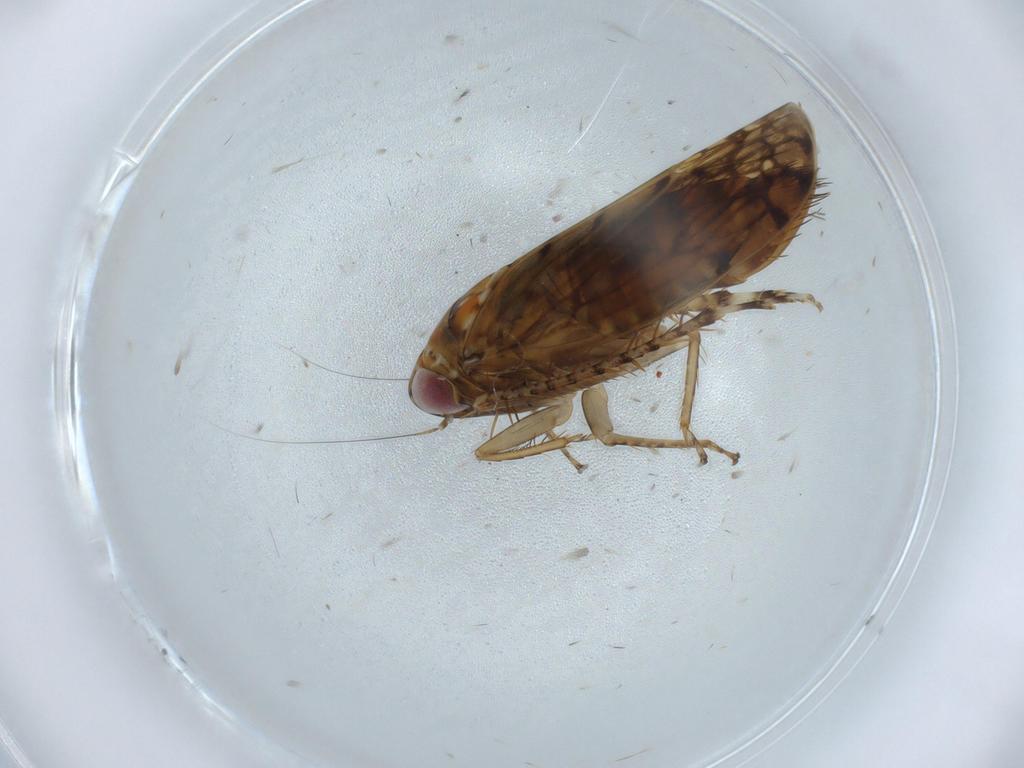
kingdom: Animalia
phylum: Arthropoda
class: Insecta
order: Hemiptera
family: Cicadellidae
